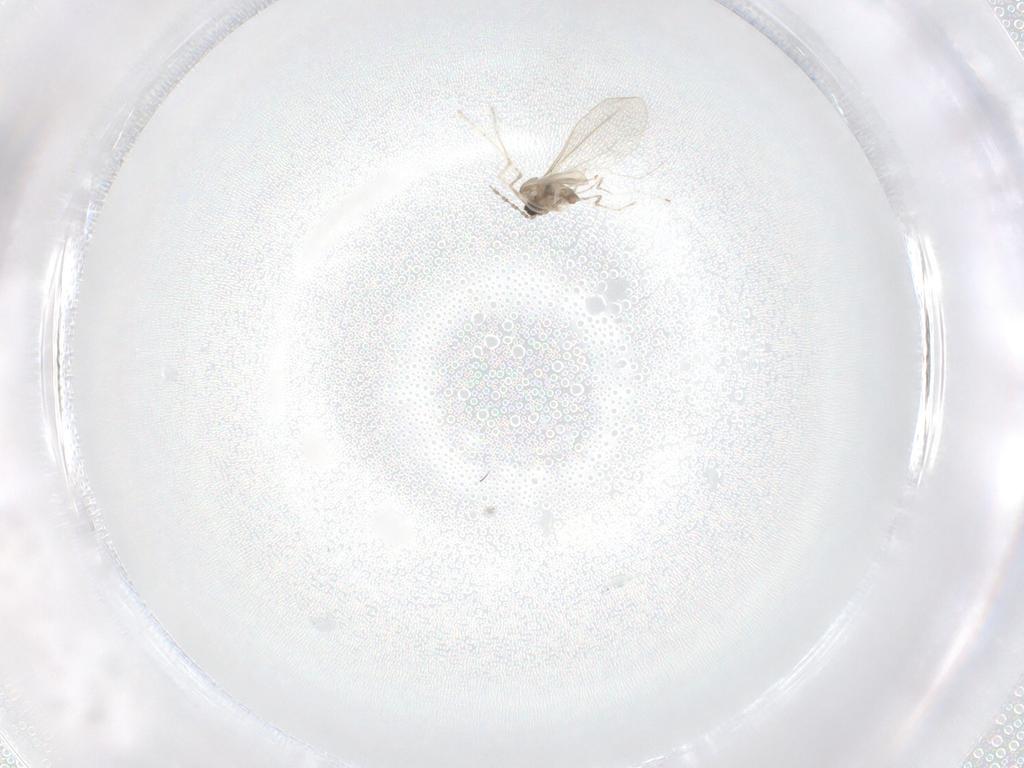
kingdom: Animalia
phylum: Arthropoda
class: Insecta
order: Diptera
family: Cecidomyiidae
